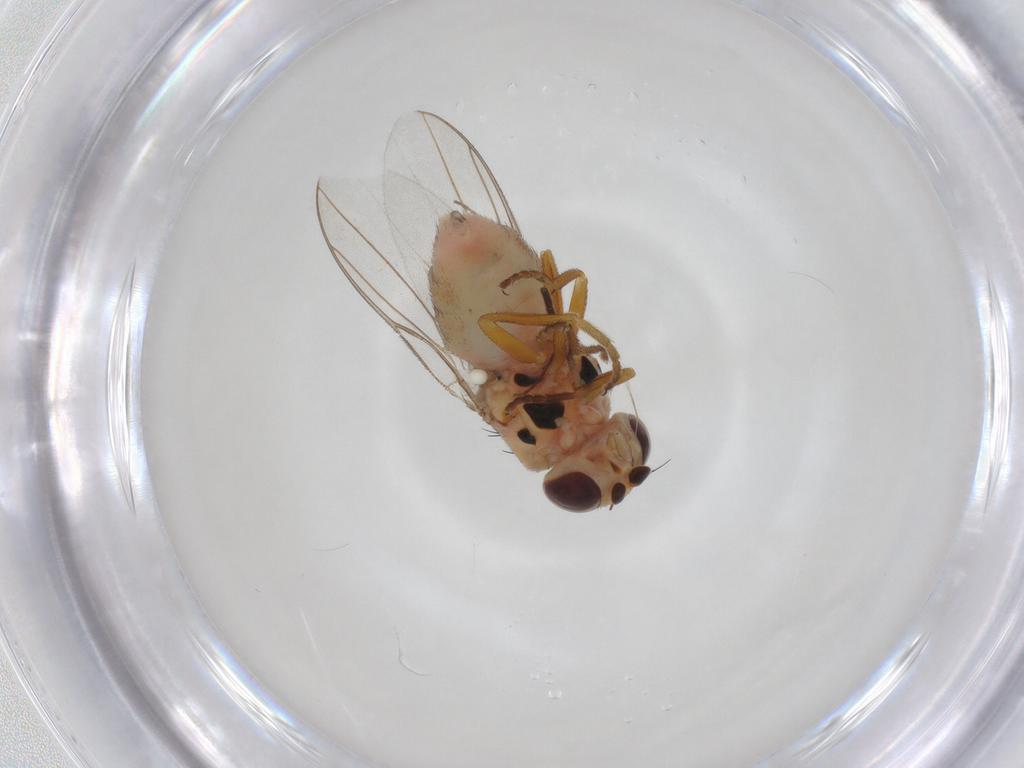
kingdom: Animalia
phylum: Arthropoda
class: Insecta
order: Diptera
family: Chloropidae
